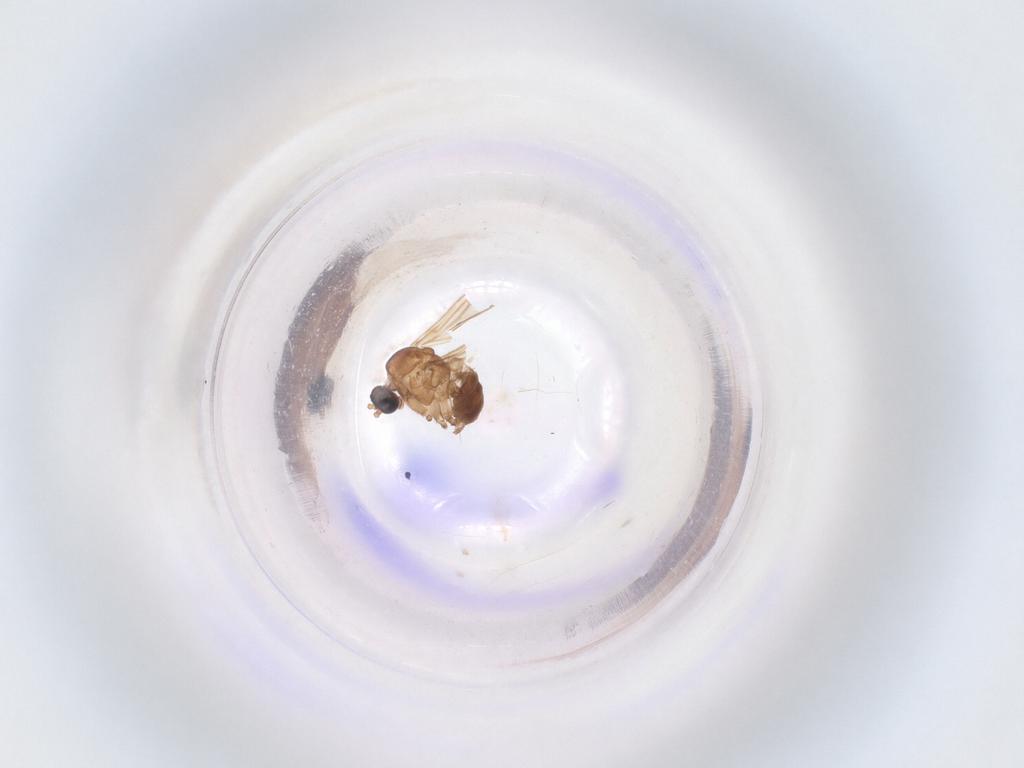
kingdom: Animalia
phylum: Arthropoda
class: Insecta
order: Diptera
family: Sciaridae
